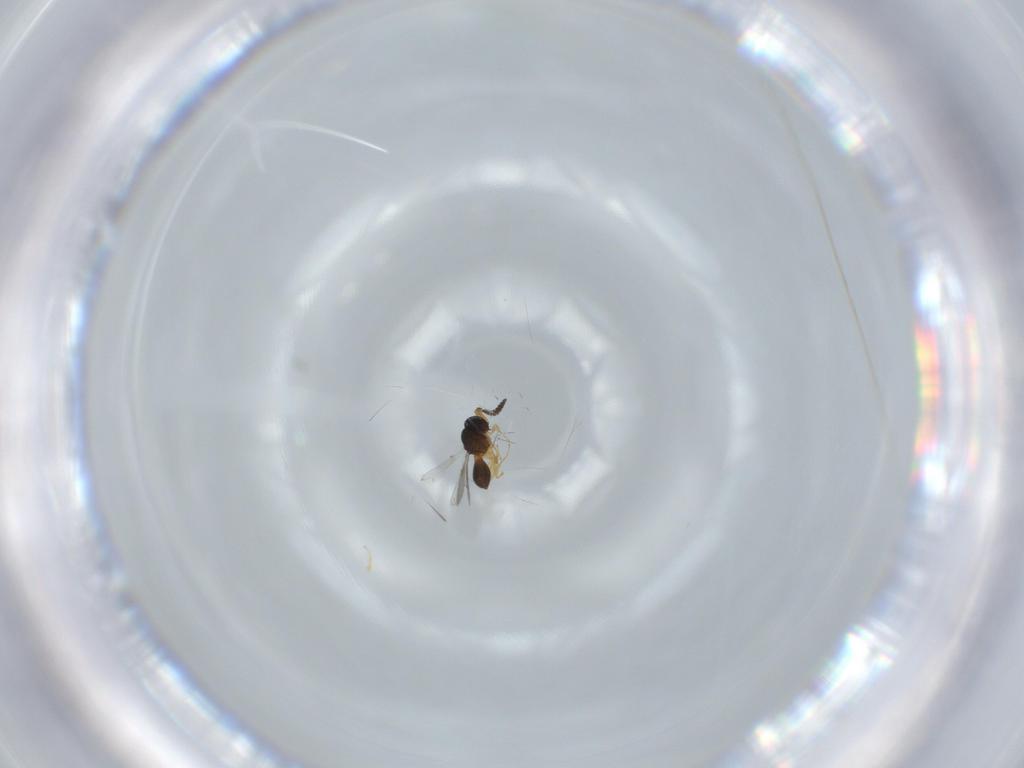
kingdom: Animalia
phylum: Arthropoda
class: Insecta
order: Hymenoptera
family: Scelionidae
